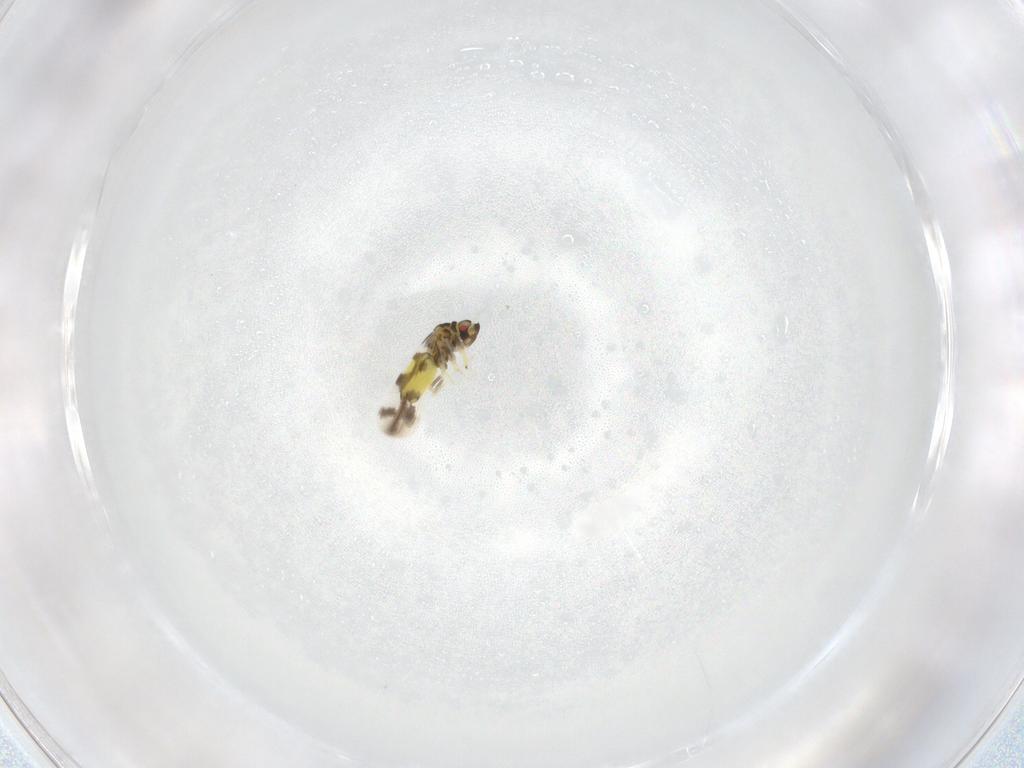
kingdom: Animalia
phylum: Arthropoda
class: Insecta
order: Hemiptera
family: Aleyrodidae
